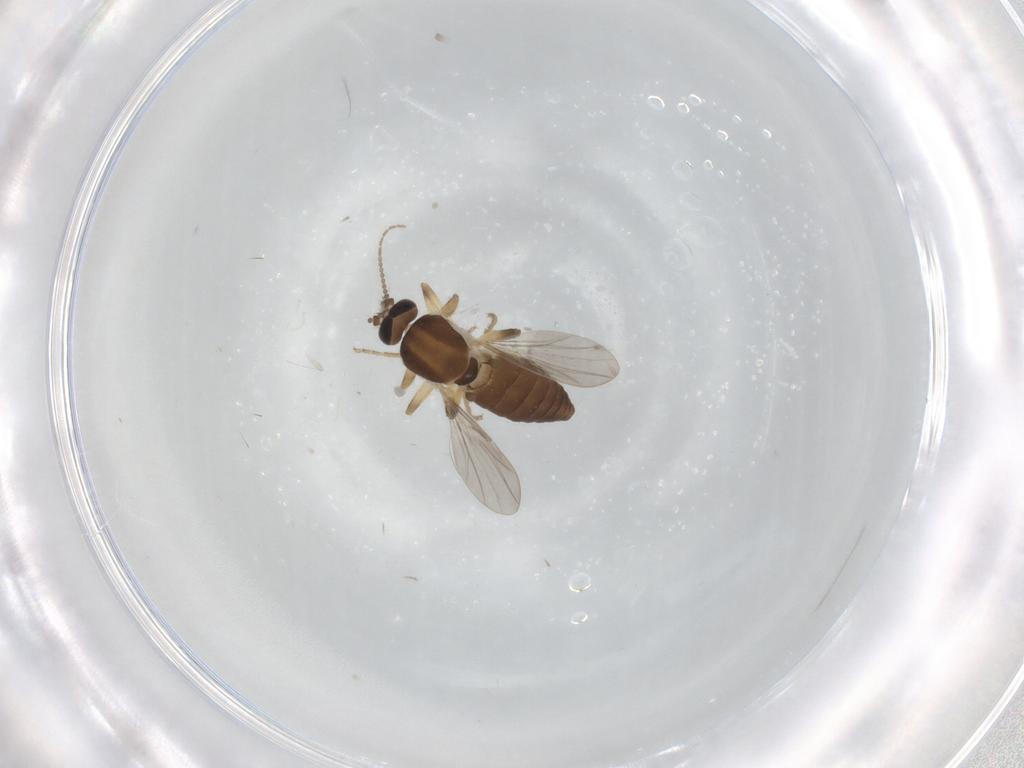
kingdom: Animalia
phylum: Arthropoda
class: Insecta
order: Diptera
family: Ceratopogonidae
